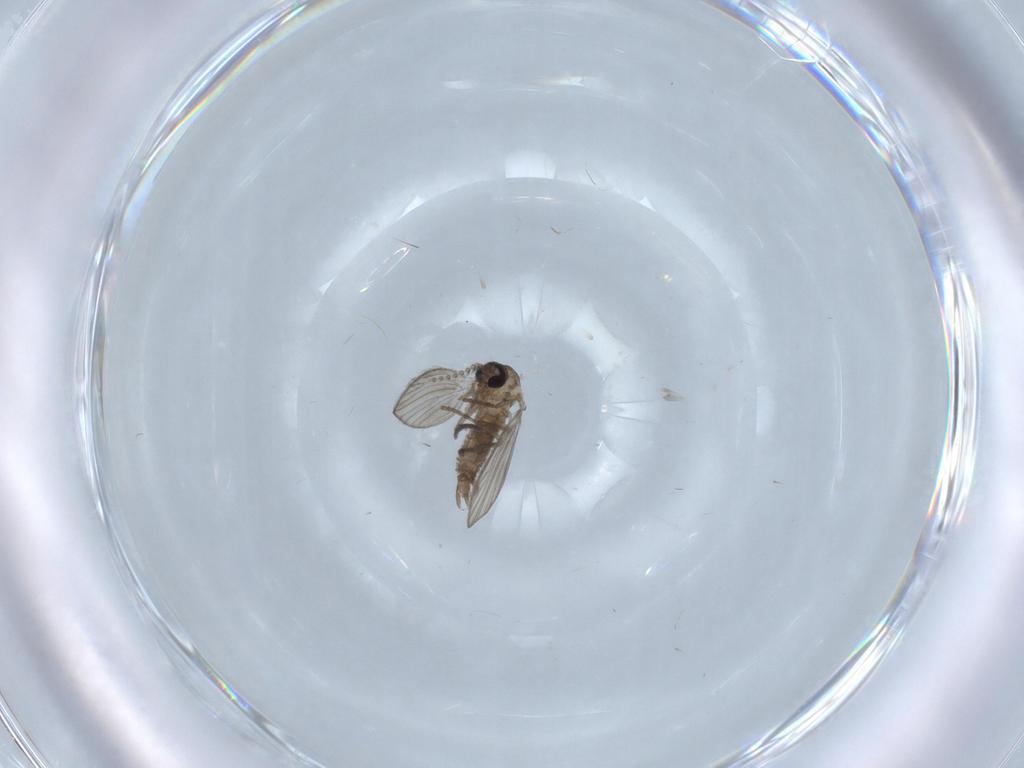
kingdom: Animalia
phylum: Arthropoda
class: Insecta
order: Diptera
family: Psychodidae
